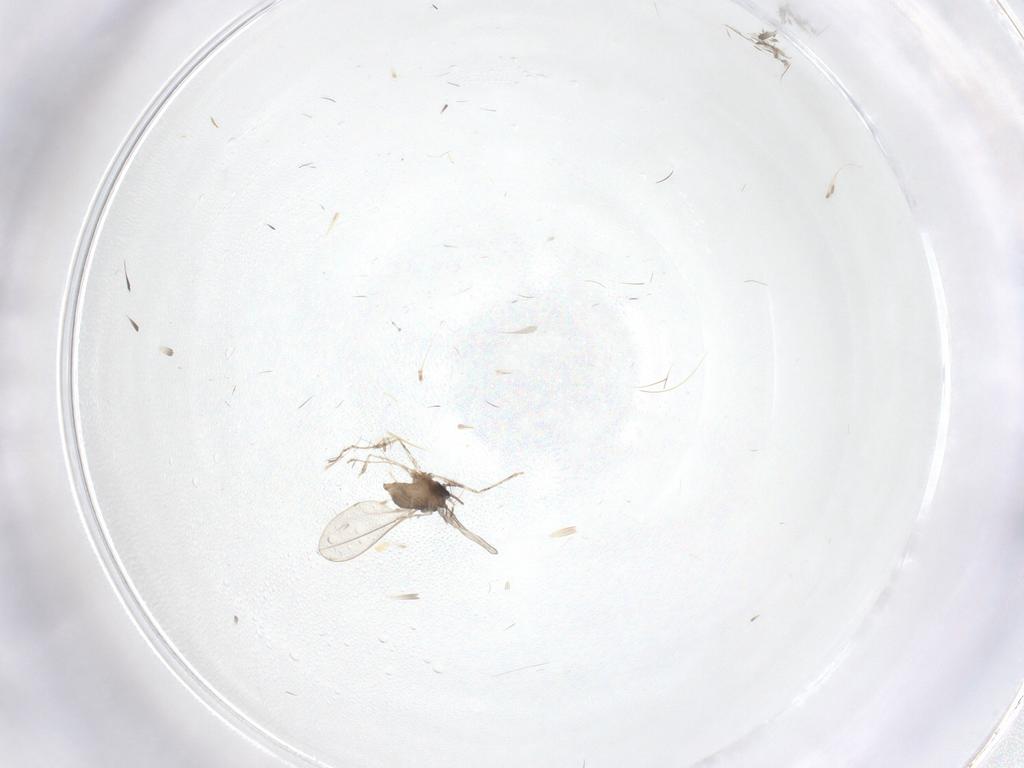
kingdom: Animalia
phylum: Arthropoda
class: Insecta
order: Diptera
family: Cecidomyiidae
